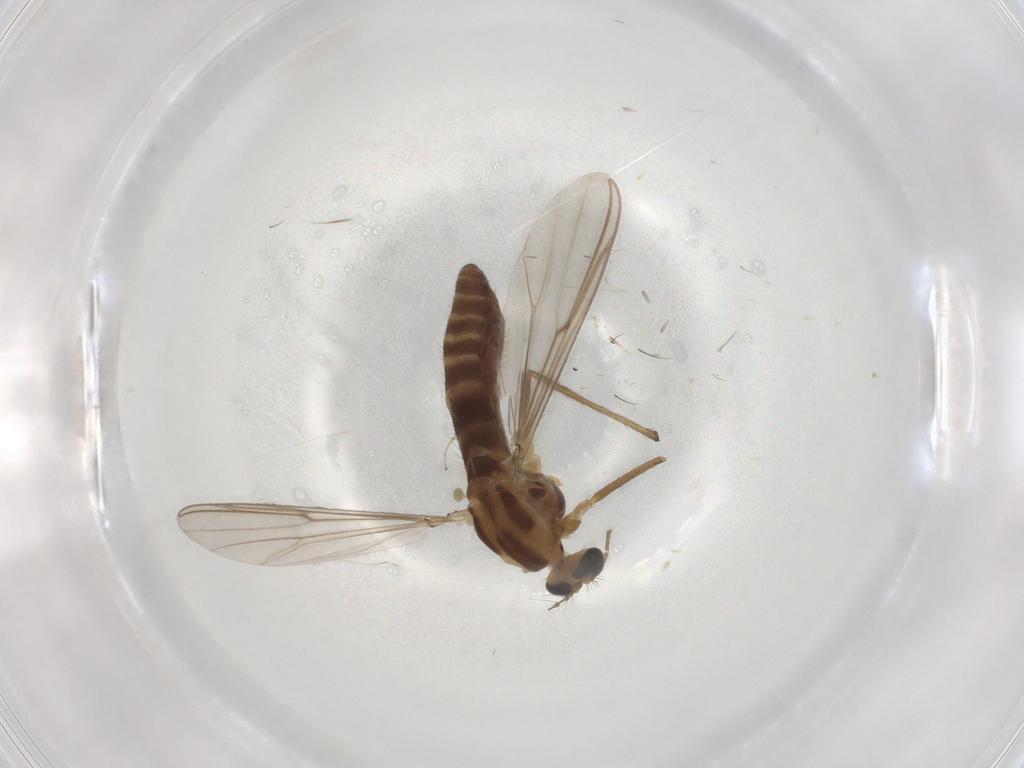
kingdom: Animalia
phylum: Arthropoda
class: Insecta
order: Diptera
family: Chironomidae
